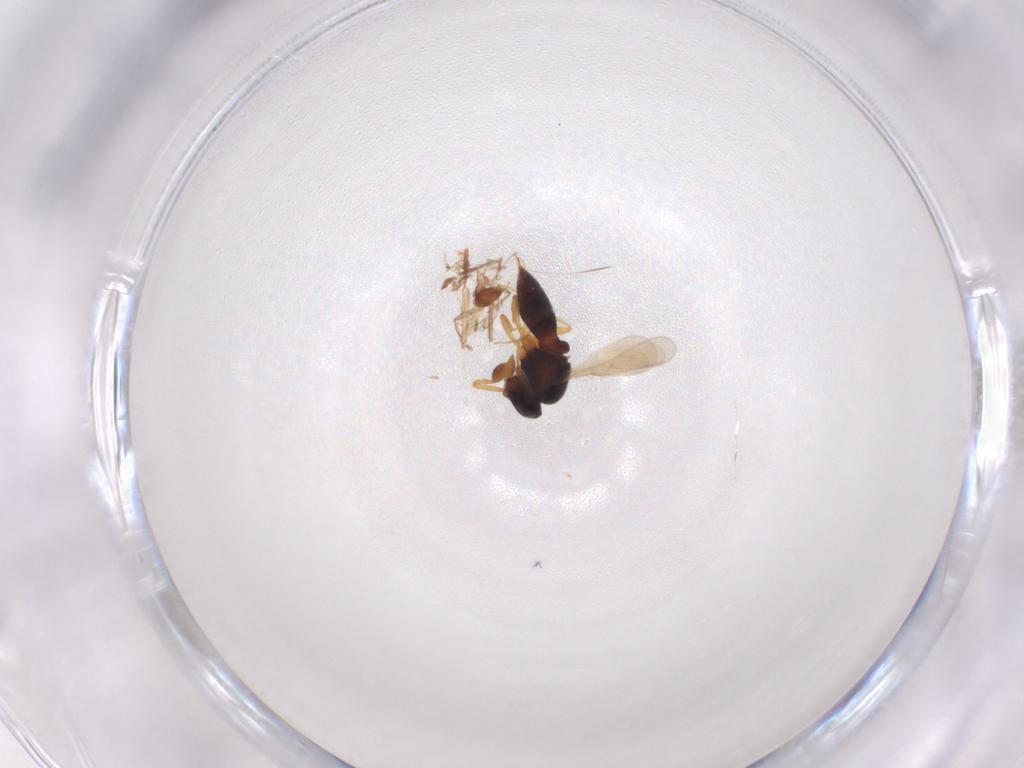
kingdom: Animalia
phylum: Arthropoda
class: Insecta
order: Hymenoptera
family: Scelionidae
